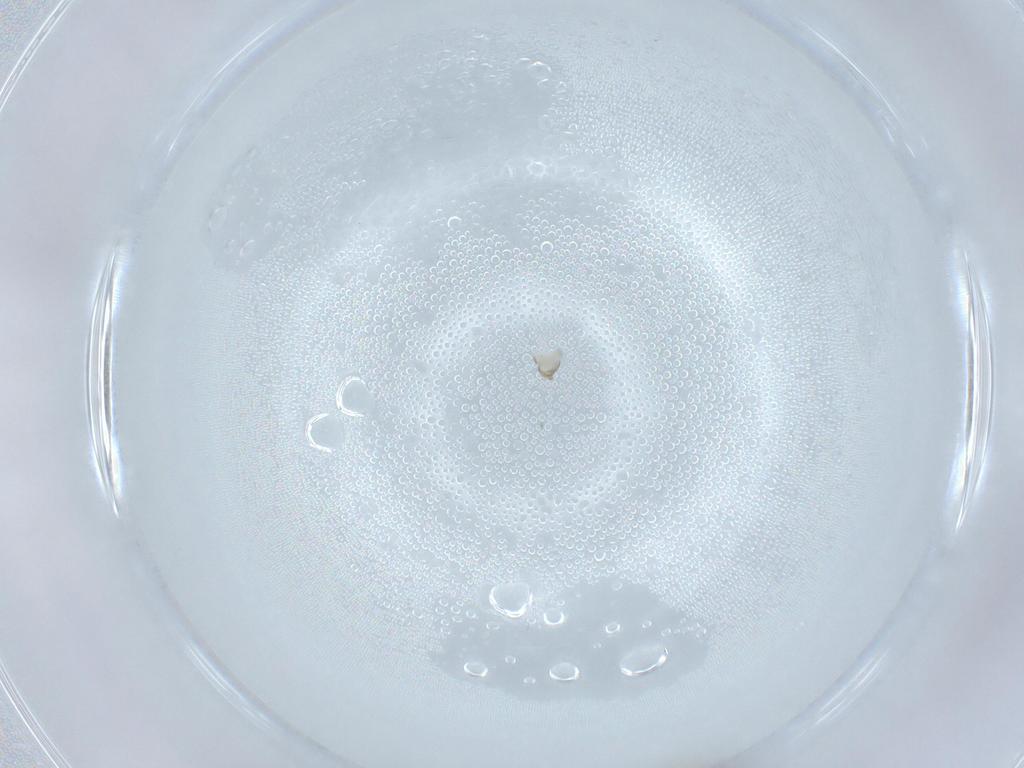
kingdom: Animalia
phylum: Arthropoda
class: Insecta
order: Diptera
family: Cecidomyiidae
